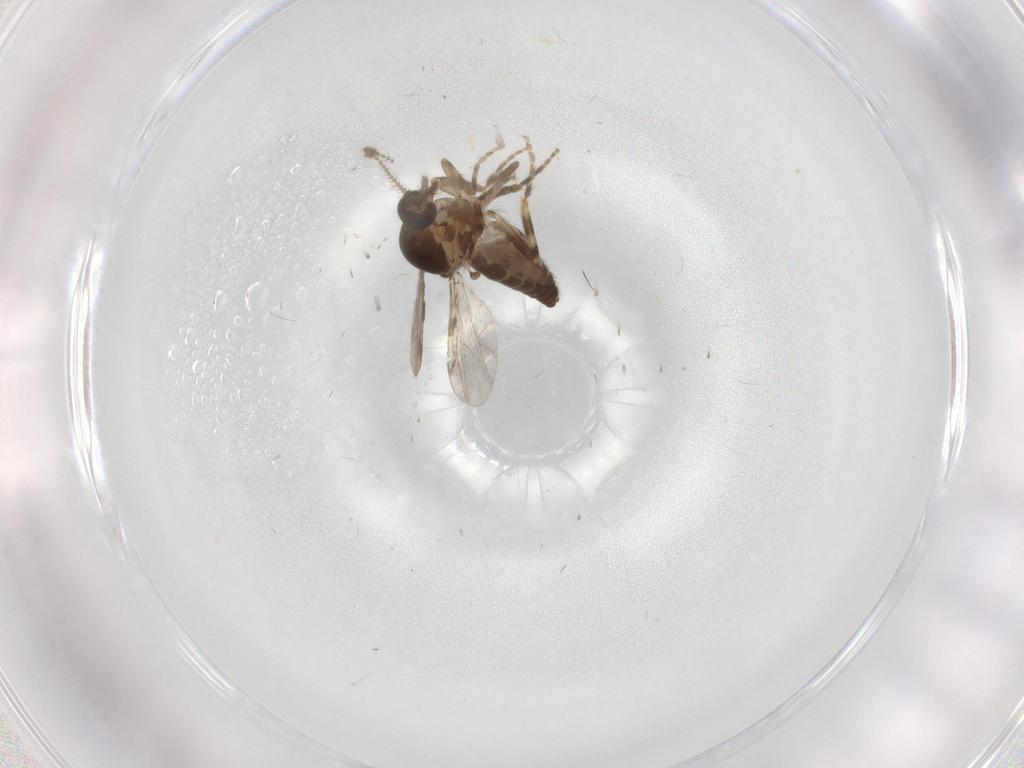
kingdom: Animalia
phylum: Arthropoda
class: Insecta
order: Diptera
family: Ceratopogonidae
